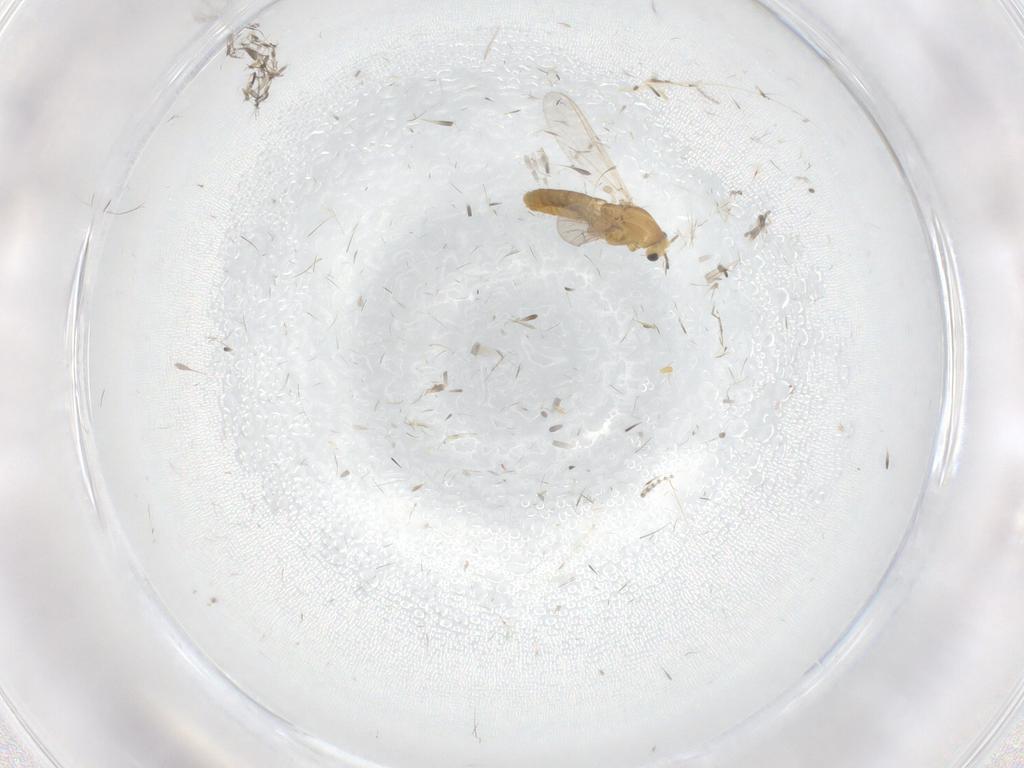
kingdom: Animalia
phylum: Arthropoda
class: Insecta
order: Diptera
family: Chironomidae
